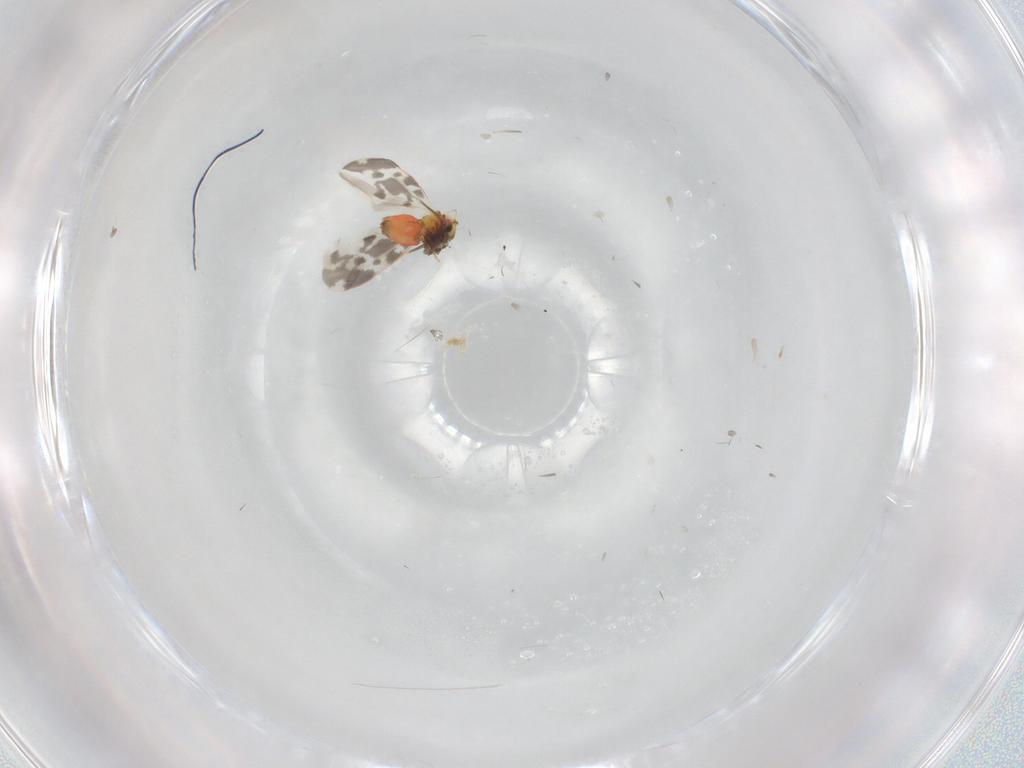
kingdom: Animalia
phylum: Arthropoda
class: Insecta
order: Hemiptera
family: Aleyrodidae
